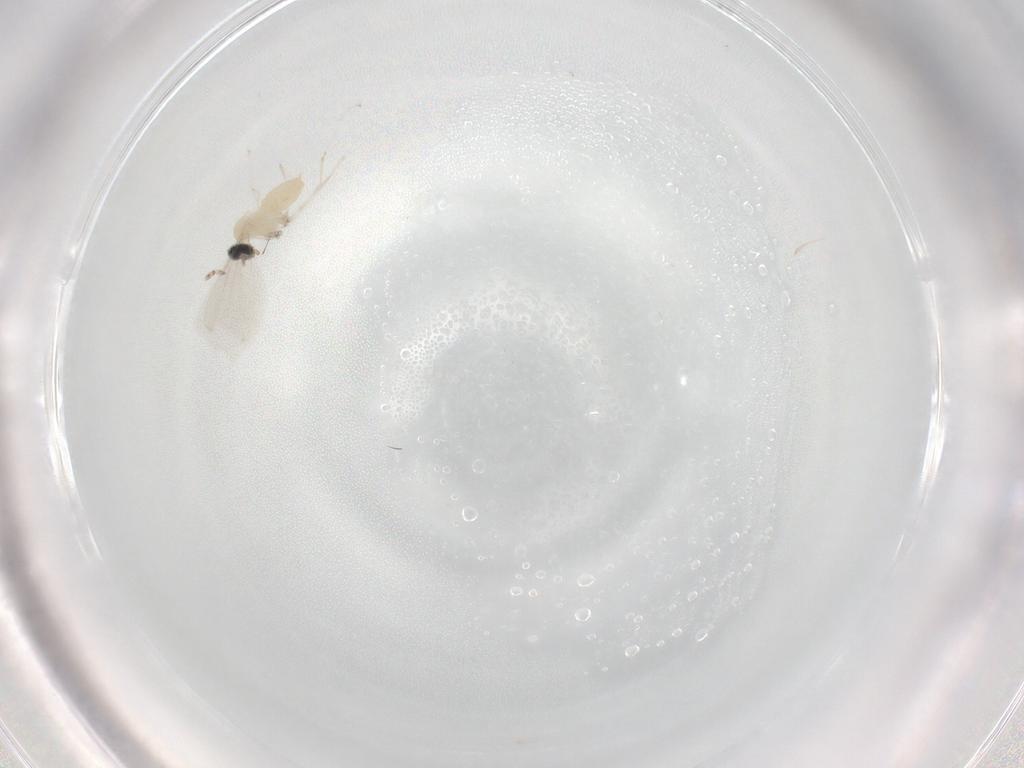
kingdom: Animalia
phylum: Arthropoda
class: Insecta
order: Diptera
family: Cecidomyiidae
